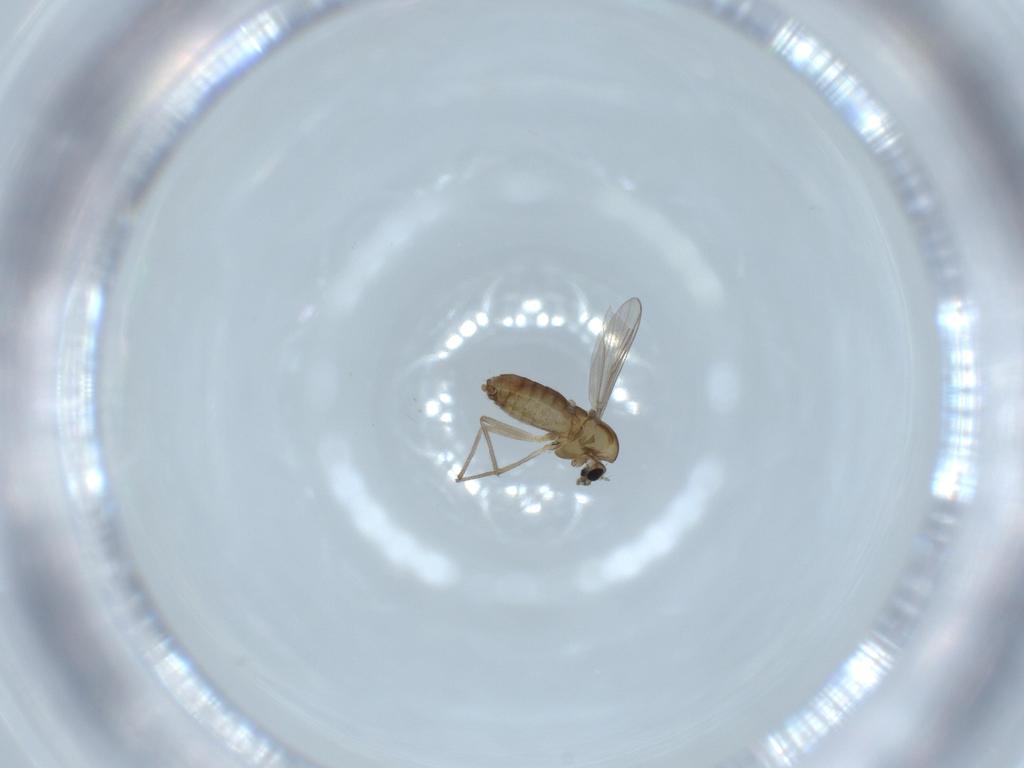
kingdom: Animalia
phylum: Arthropoda
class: Insecta
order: Diptera
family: Chironomidae
